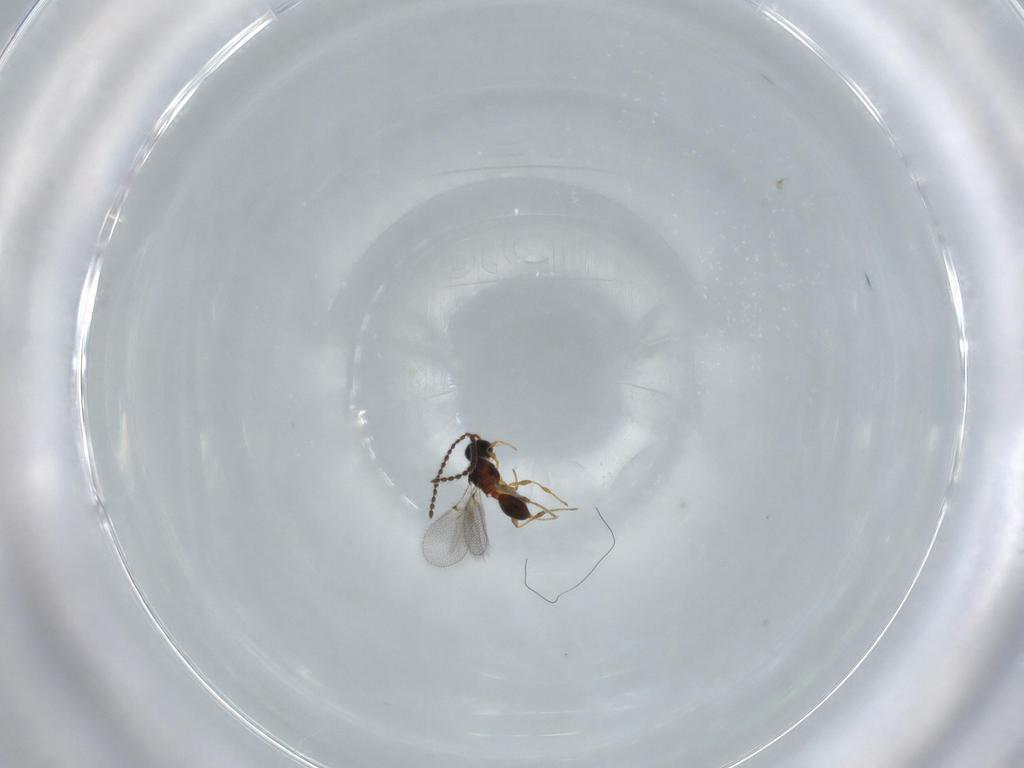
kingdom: Animalia
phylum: Arthropoda
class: Insecta
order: Hymenoptera
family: Diapriidae
